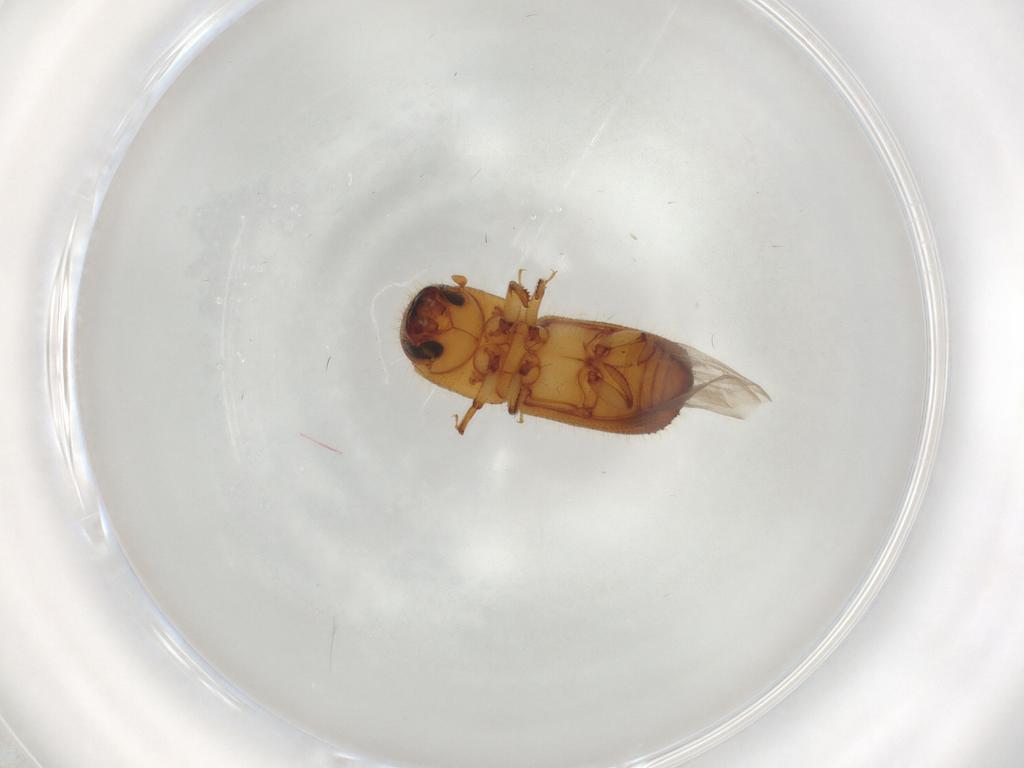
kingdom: Animalia
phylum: Arthropoda
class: Insecta
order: Coleoptera
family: Curculionidae
